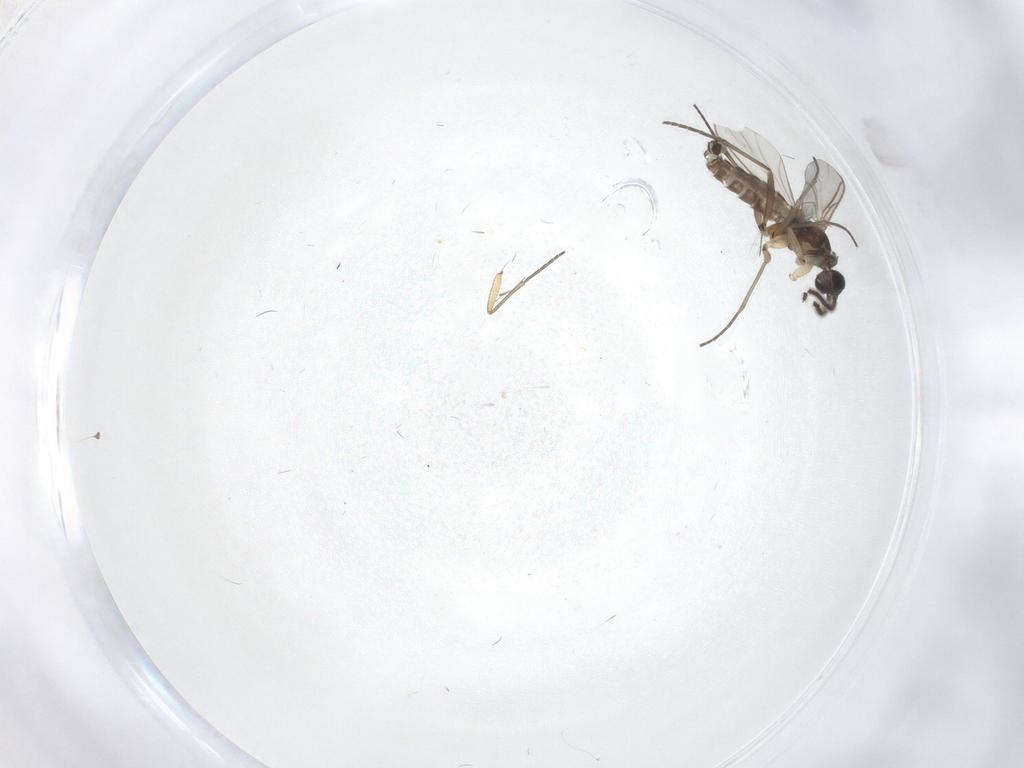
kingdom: Animalia
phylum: Arthropoda
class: Insecta
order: Diptera
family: Sciaridae
